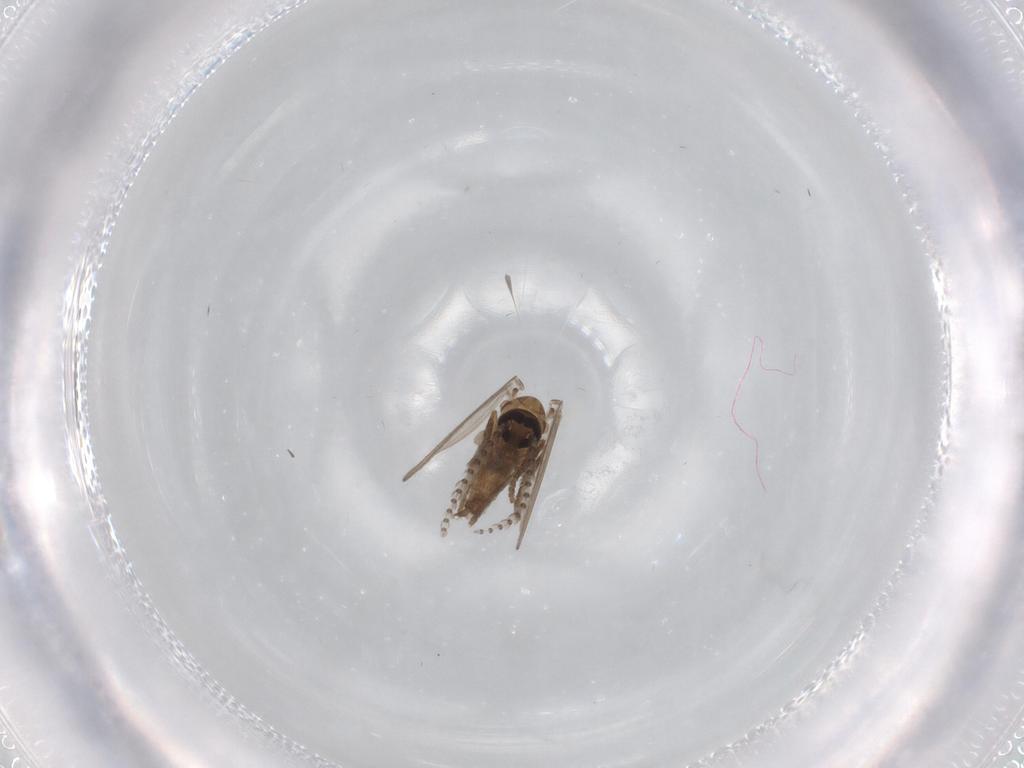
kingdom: Animalia
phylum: Arthropoda
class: Insecta
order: Diptera
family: Psychodidae
